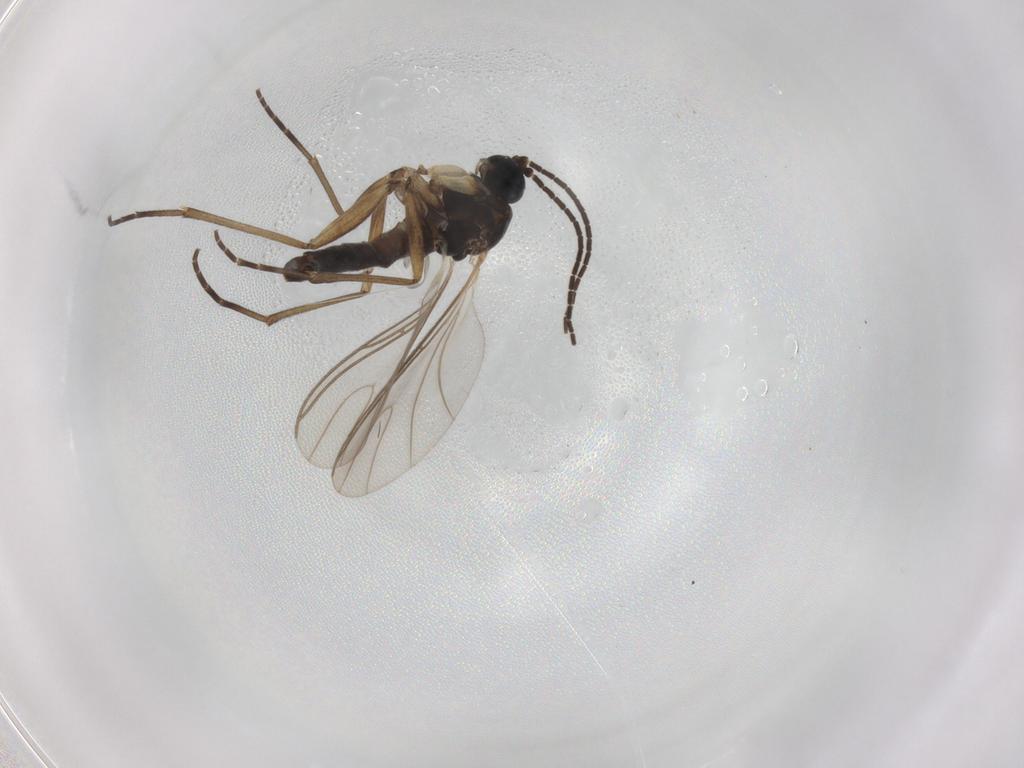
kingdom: Animalia
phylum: Arthropoda
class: Insecta
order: Diptera
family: Sciaridae
